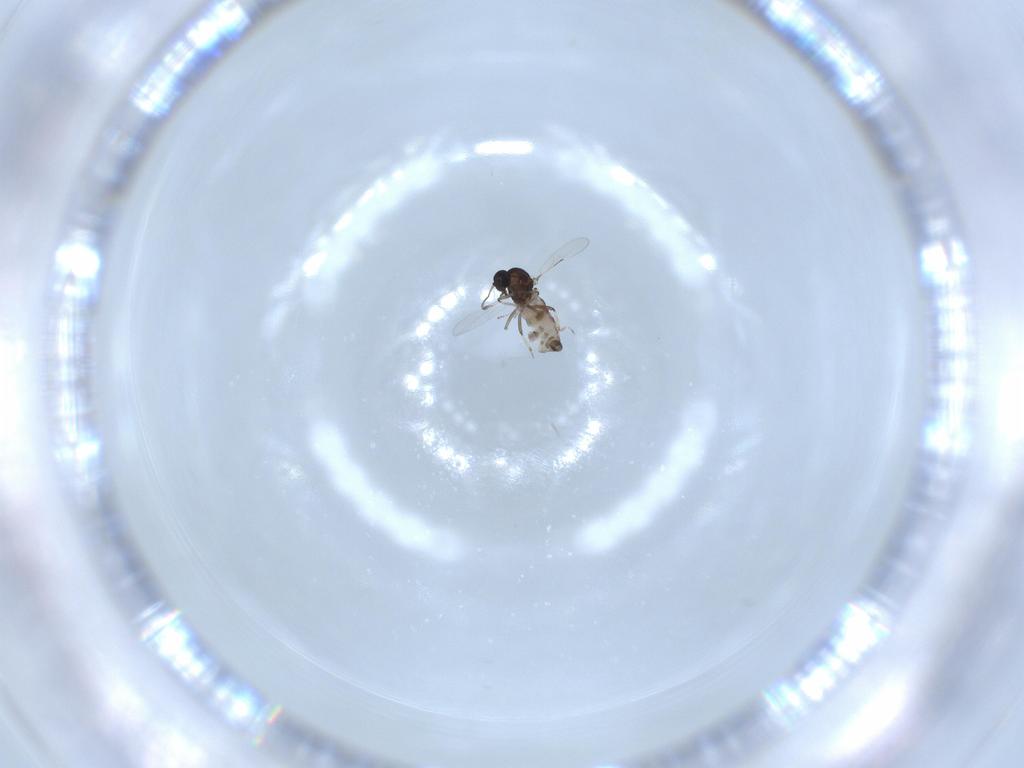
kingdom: Animalia
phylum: Arthropoda
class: Insecta
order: Diptera
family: Ceratopogonidae
